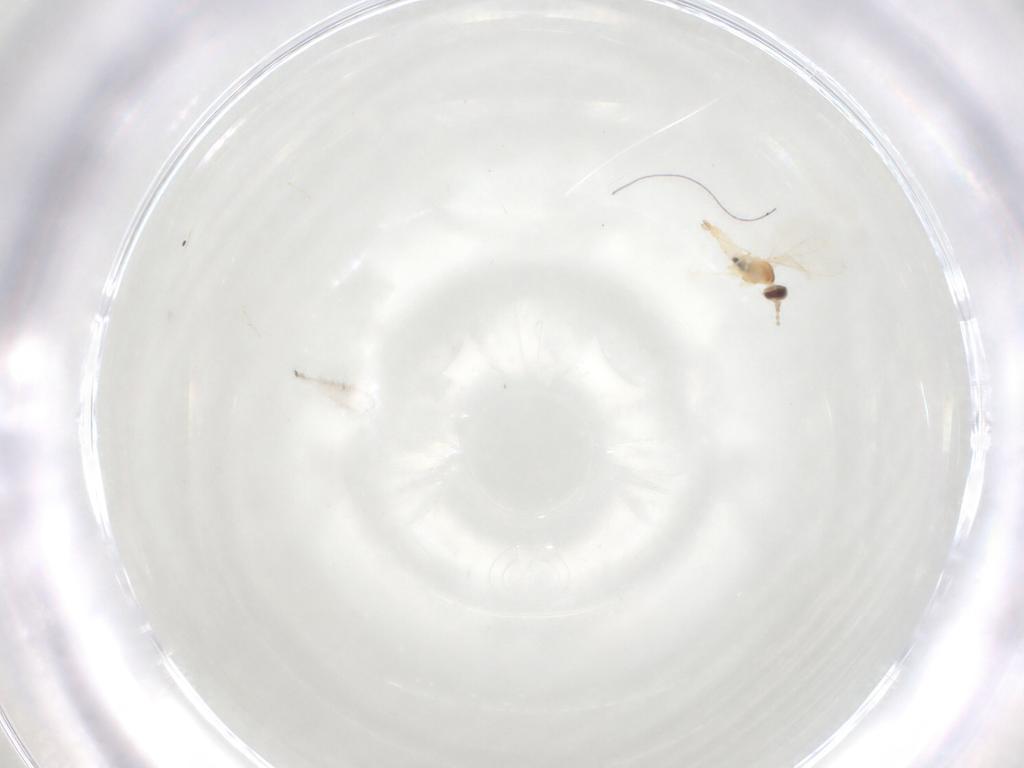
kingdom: Animalia
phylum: Arthropoda
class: Insecta
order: Diptera
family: Cecidomyiidae
